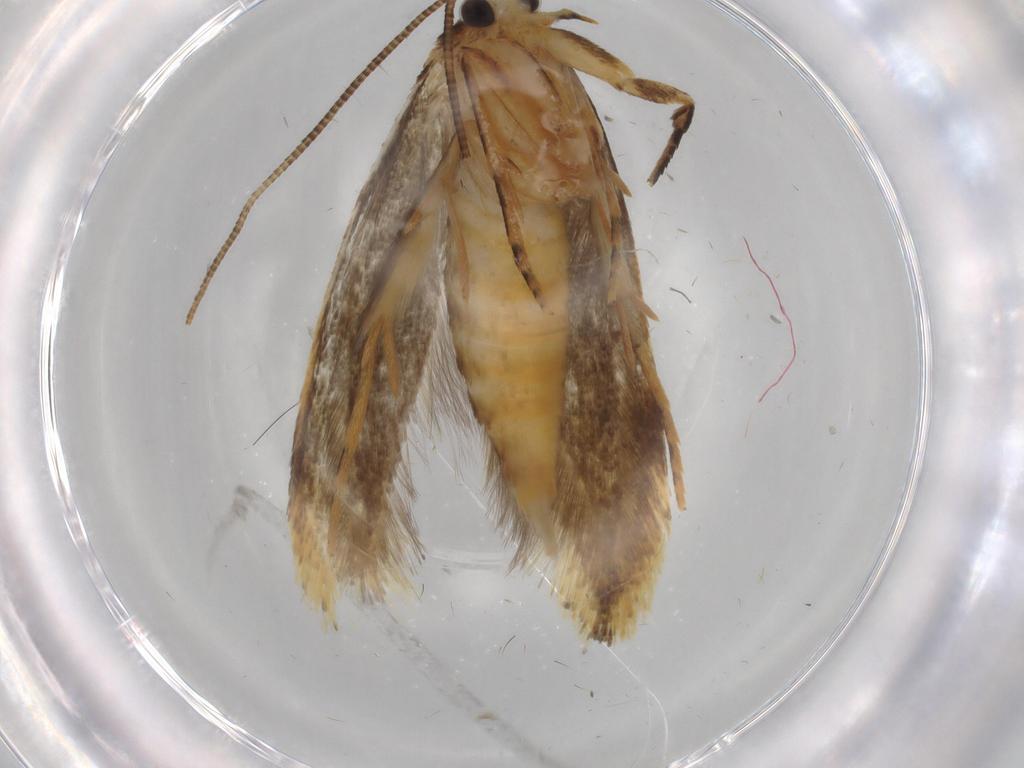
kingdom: Animalia
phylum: Arthropoda
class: Insecta
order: Lepidoptera
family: Tineidae
